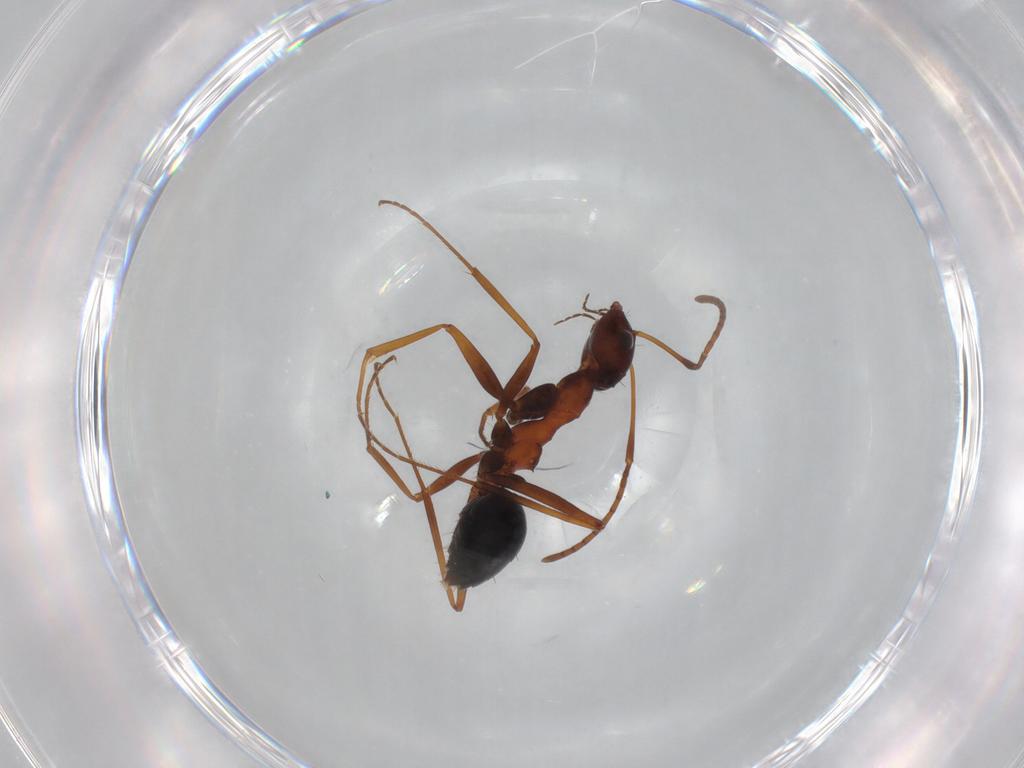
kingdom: Animalia
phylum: Arthropoda
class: Insecta
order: Hymenoptera
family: Formicidae
